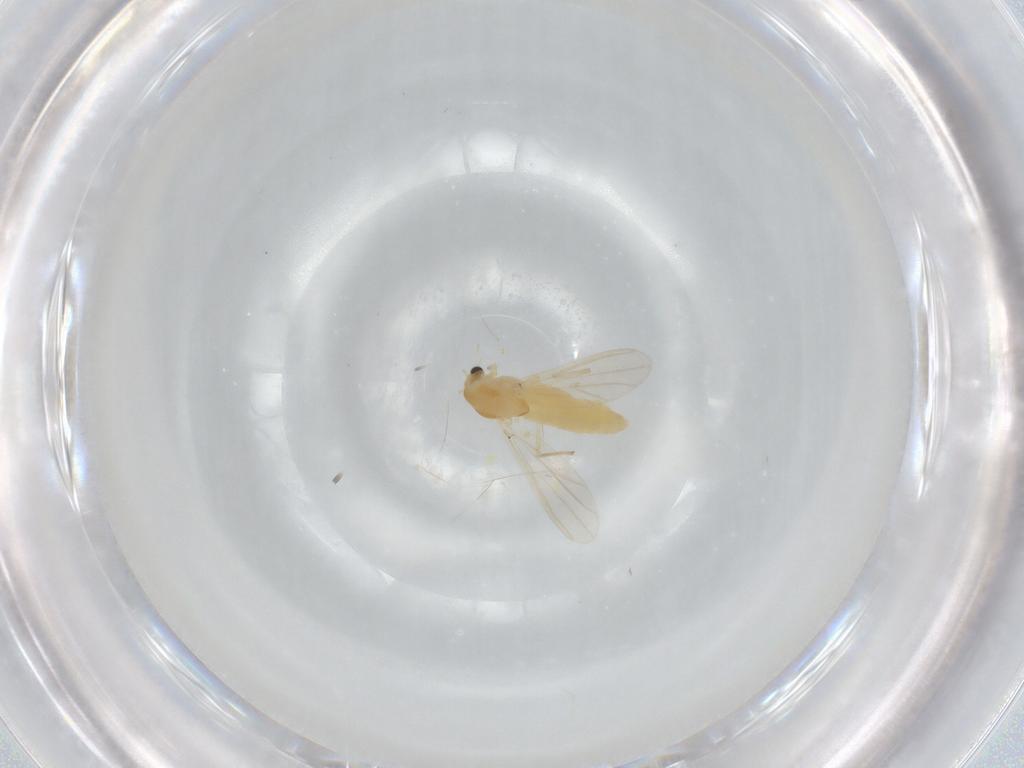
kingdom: Animalia
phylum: Arthropoda
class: Insecta
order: Diptera
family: Chironomidae
